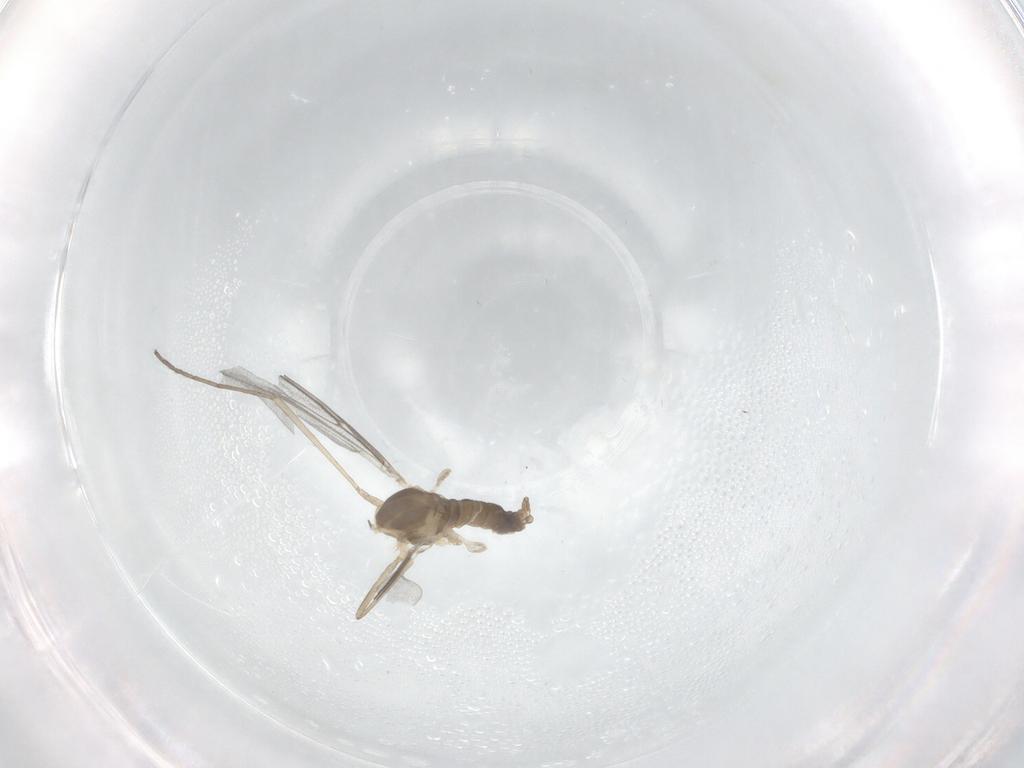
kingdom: Animalia
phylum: Arthropoda
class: Insecta
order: Diptera
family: Cecidomyiidae
